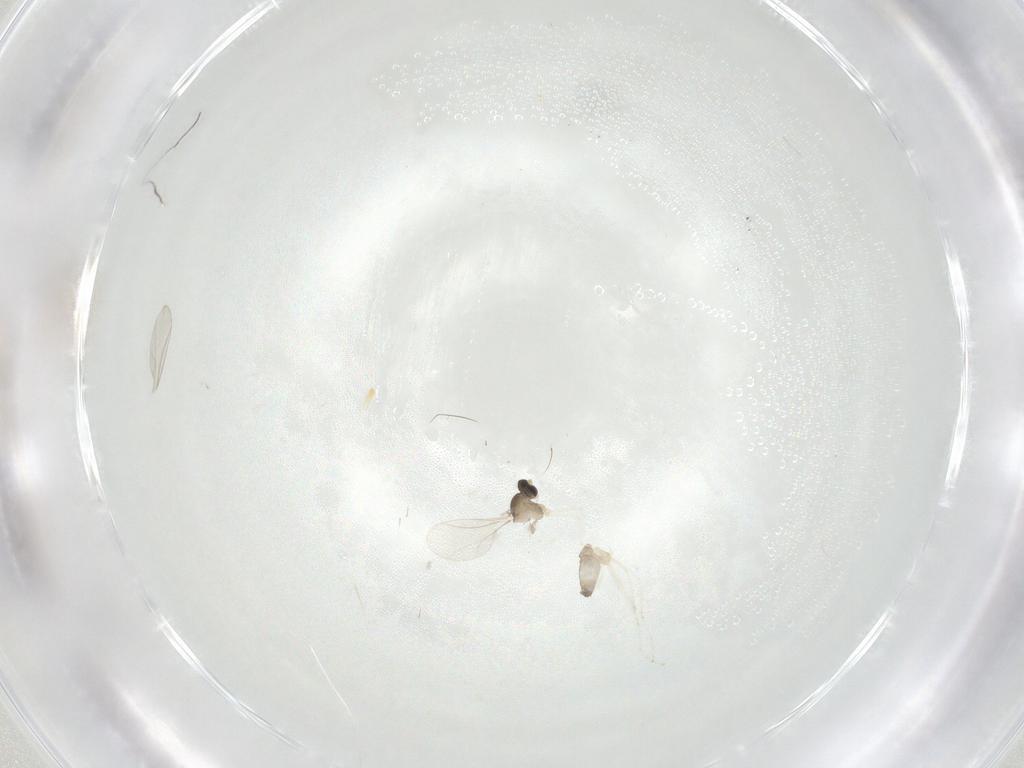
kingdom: Animalia
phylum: Arthropoda
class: Insecta
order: Diptera
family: Cecidomyiidae
